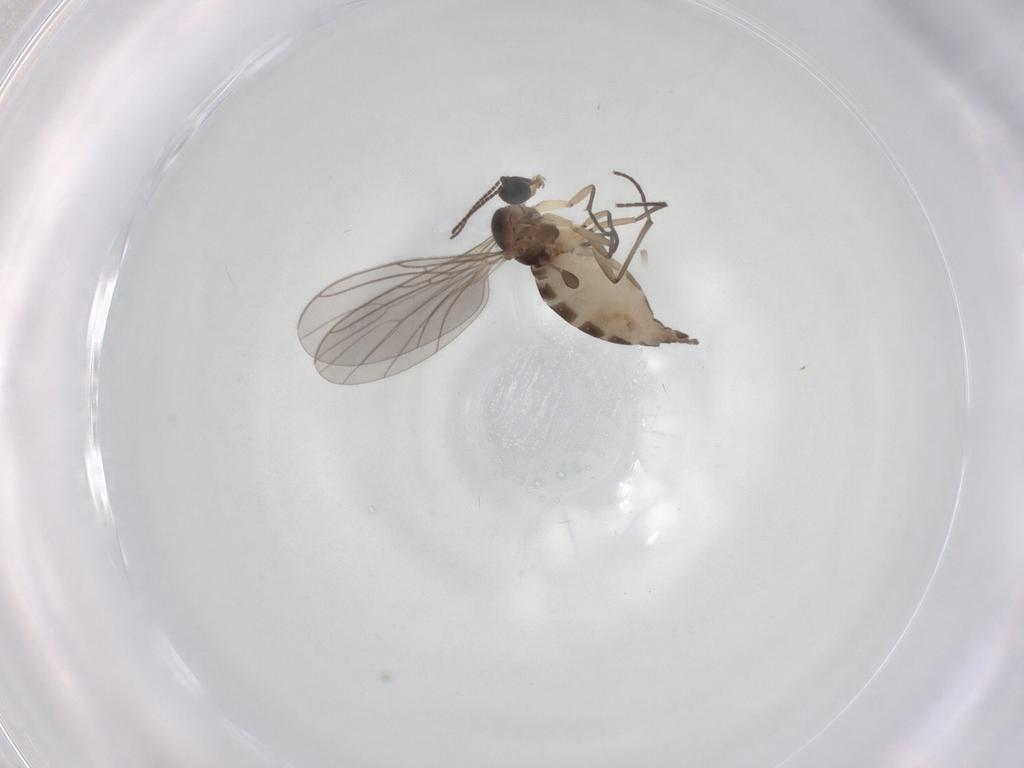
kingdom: Animalia
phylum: Arthropoda
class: Insecta
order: Diptera
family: Sciaridae
